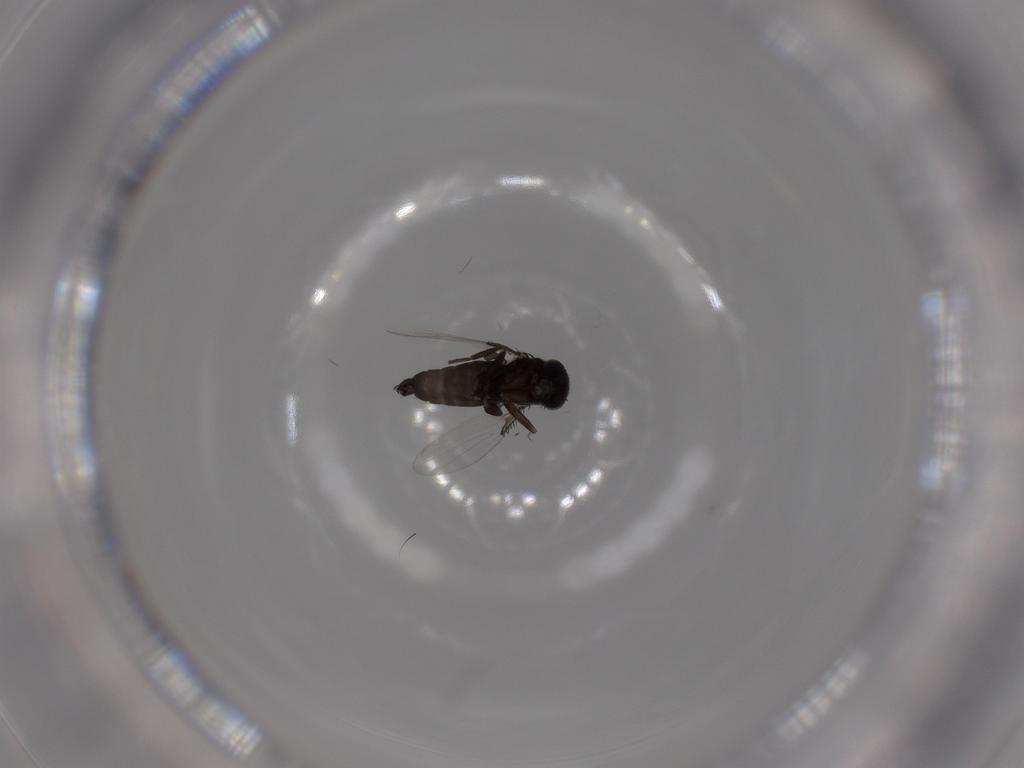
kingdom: Animalia
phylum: Arthropoda
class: Insecta
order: Diptera
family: Phoridae
